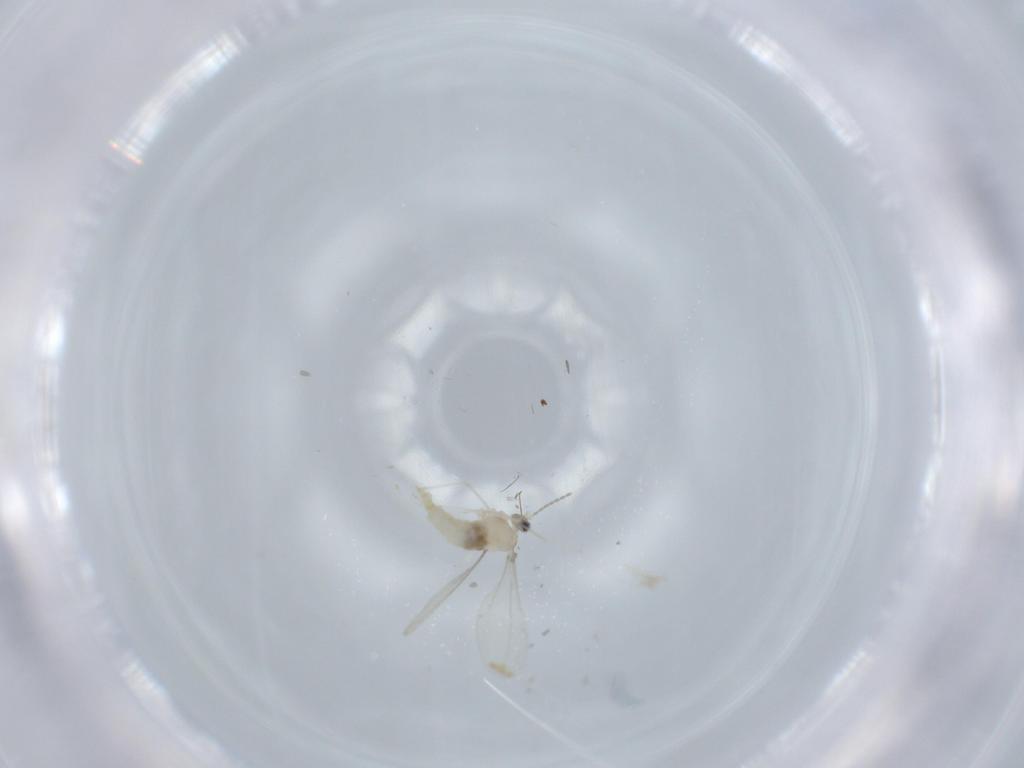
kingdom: Animalia
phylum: Arthropoda
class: Insecta
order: Diptera
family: Cecidomyiidae
